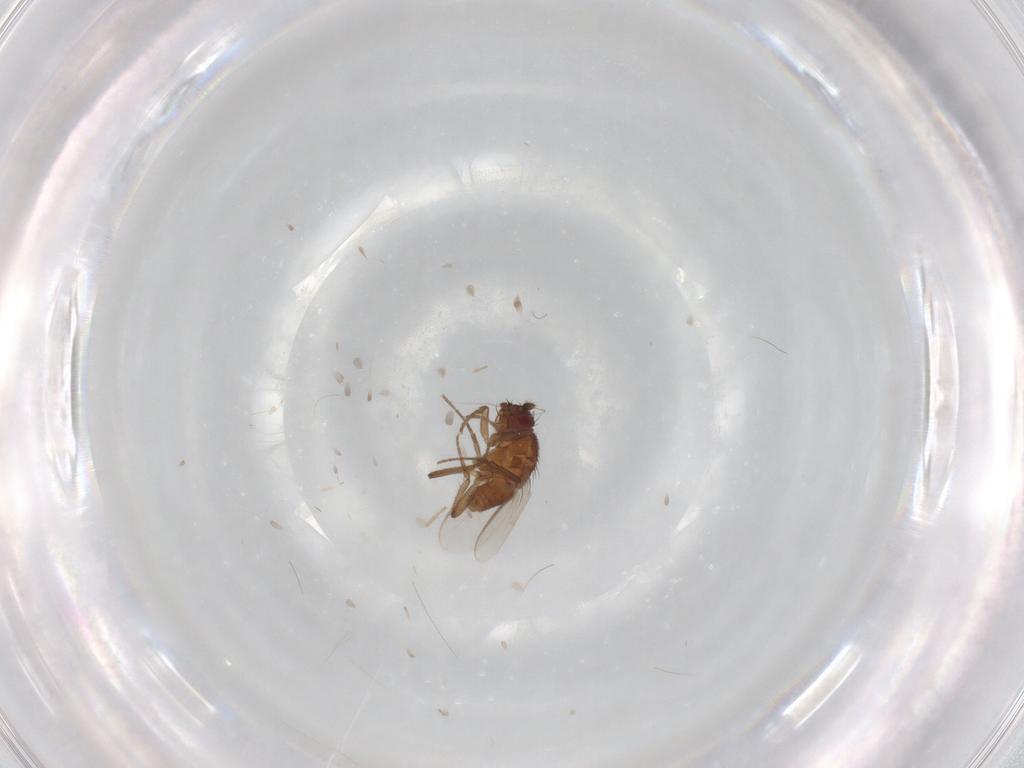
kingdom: Animalia
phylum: Arthropoda
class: Insecta
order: Diptera
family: Sphaeroceridae
